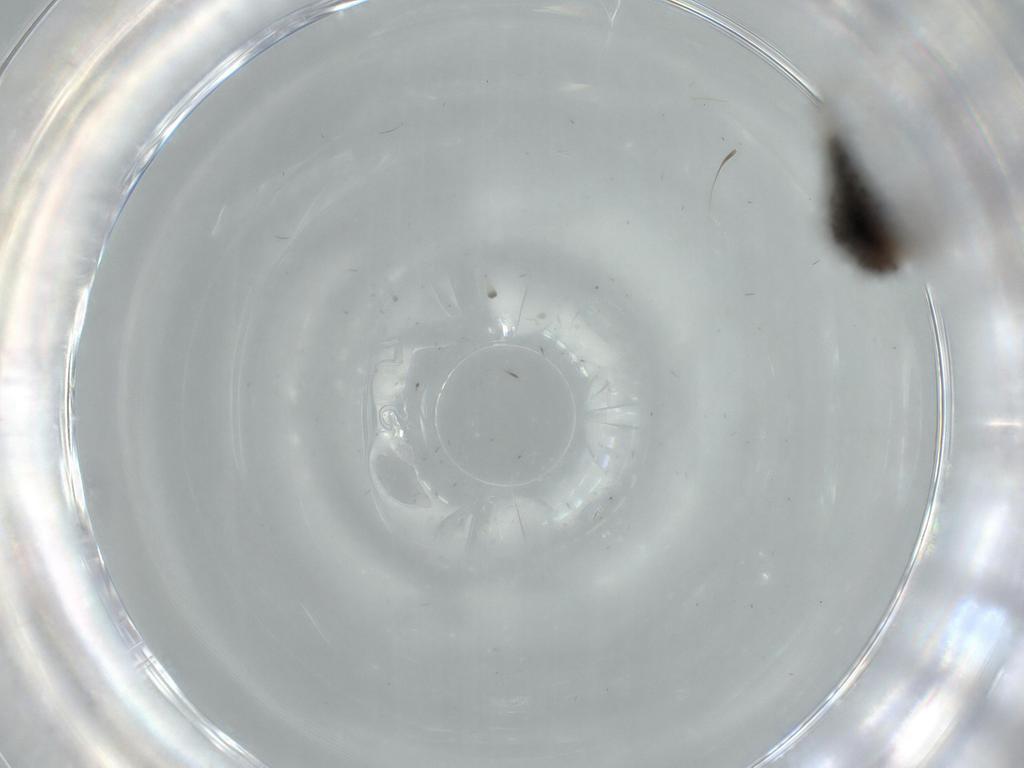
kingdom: Animalia
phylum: Arthropoda
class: Insecta
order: Diptera
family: Psychodidae
